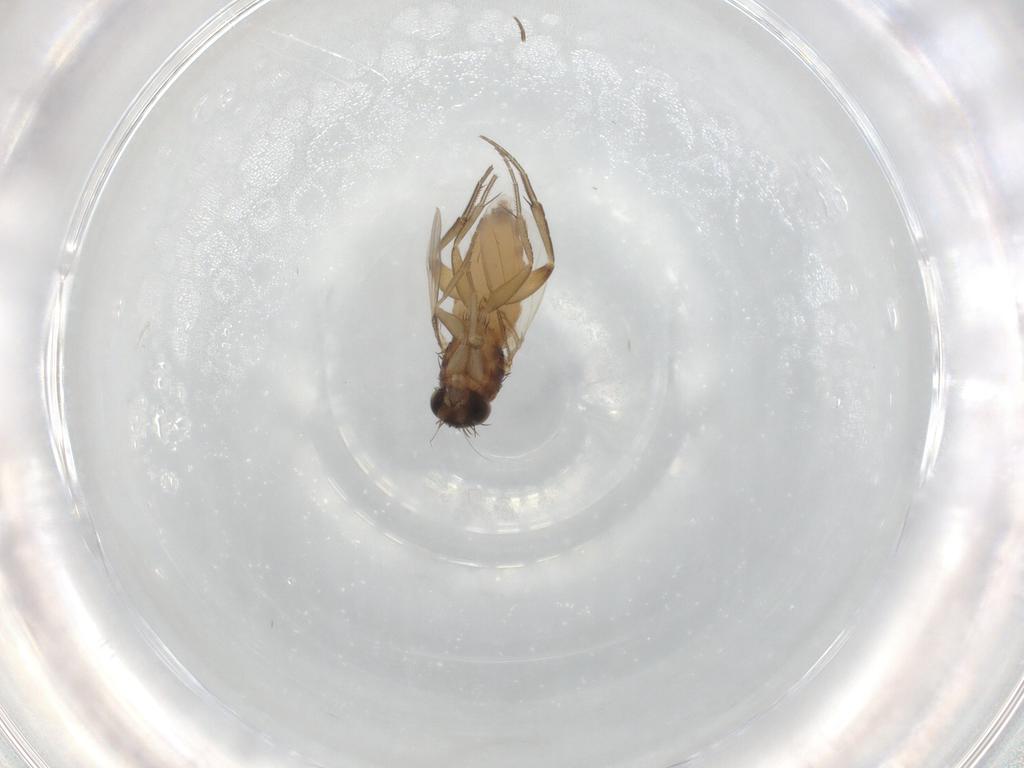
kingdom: Animalia
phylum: Arthropoda
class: Insecta
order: Diptera
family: Phoridae
